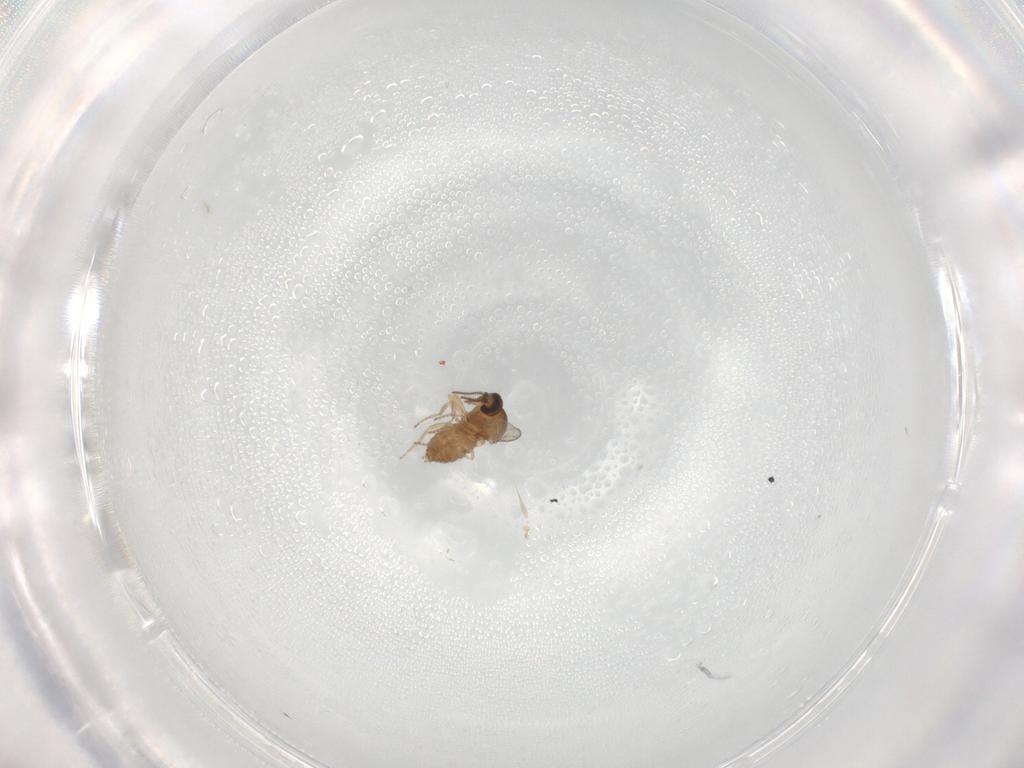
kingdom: Animalia
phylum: Arthropoda
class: Insecta
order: Diptera
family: Ceratopogonidae
